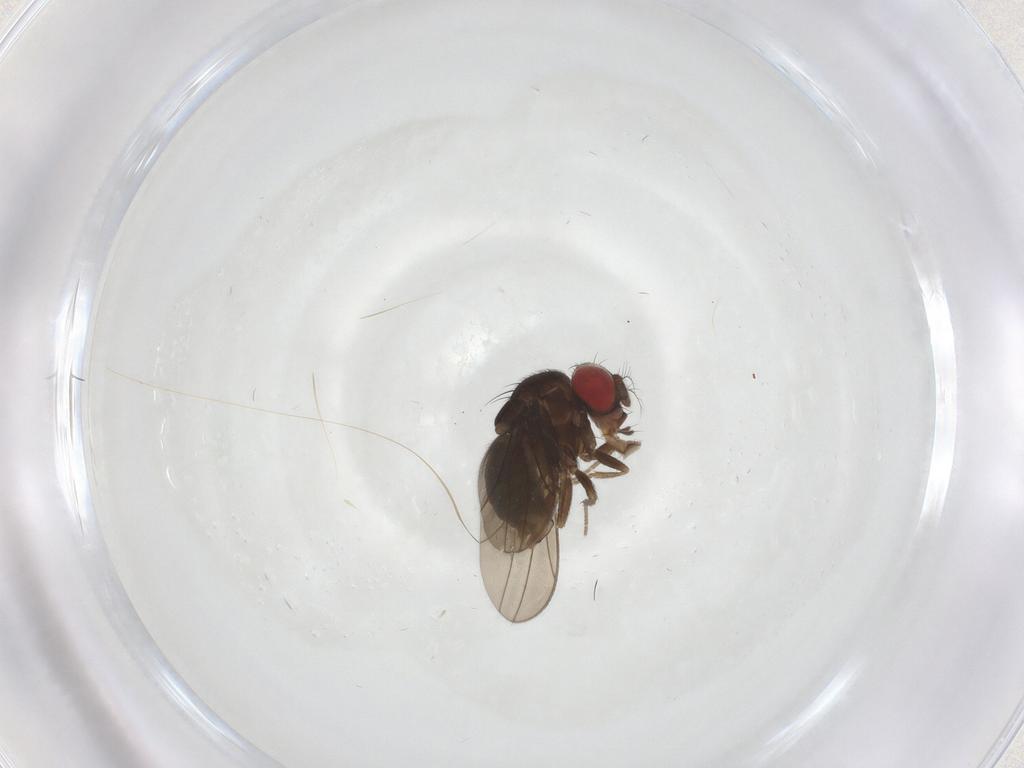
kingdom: Animalia
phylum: Arthropoda
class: Insecta
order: Diptera
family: Drosophilidae
